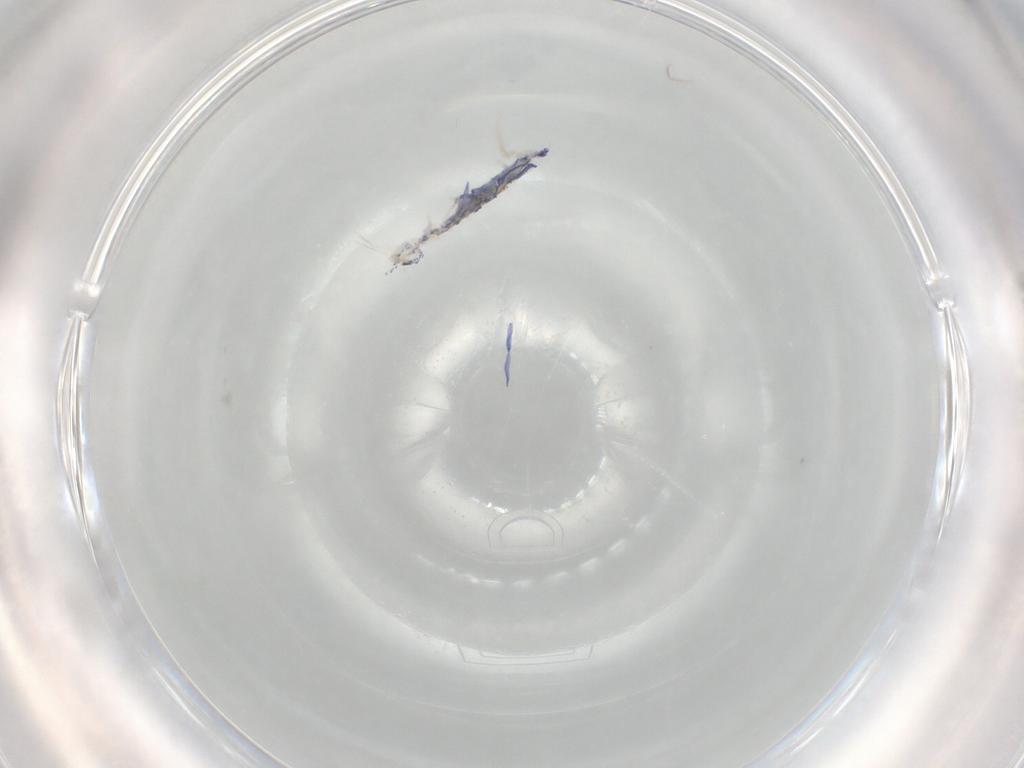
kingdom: Animalia
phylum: Arthropoda
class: Collembola
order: Entomobryomorpha
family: Entomobryidae
